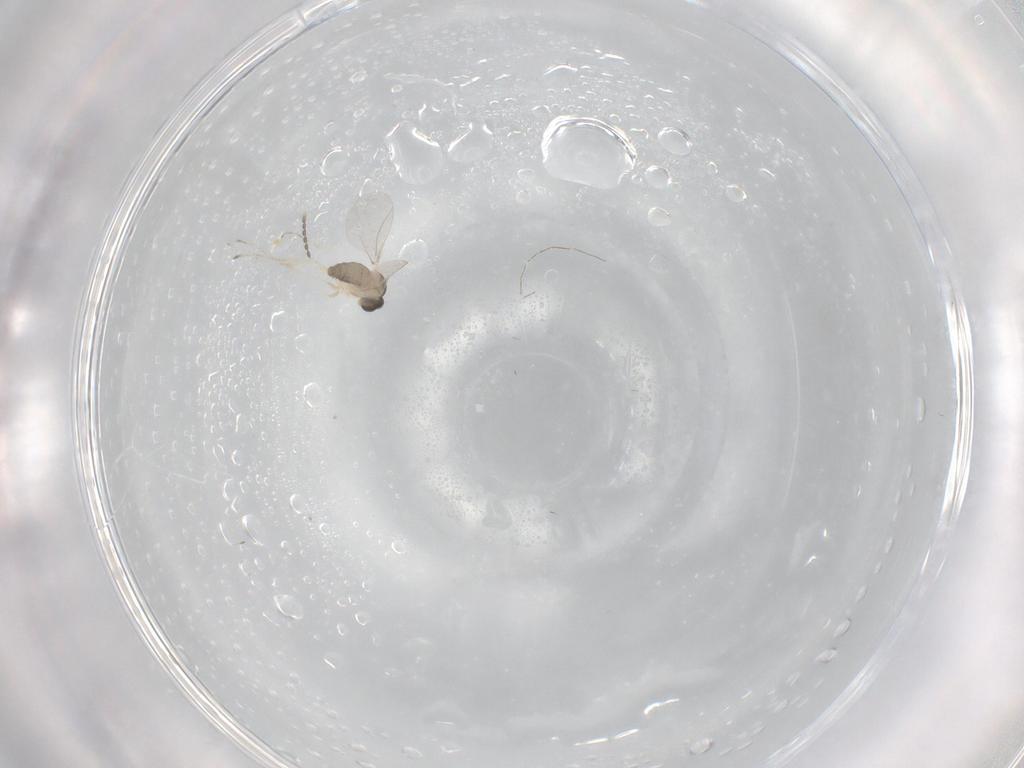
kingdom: Animalia
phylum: Arthropoda
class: Insecta
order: Diptera
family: Cecidomyiidae
